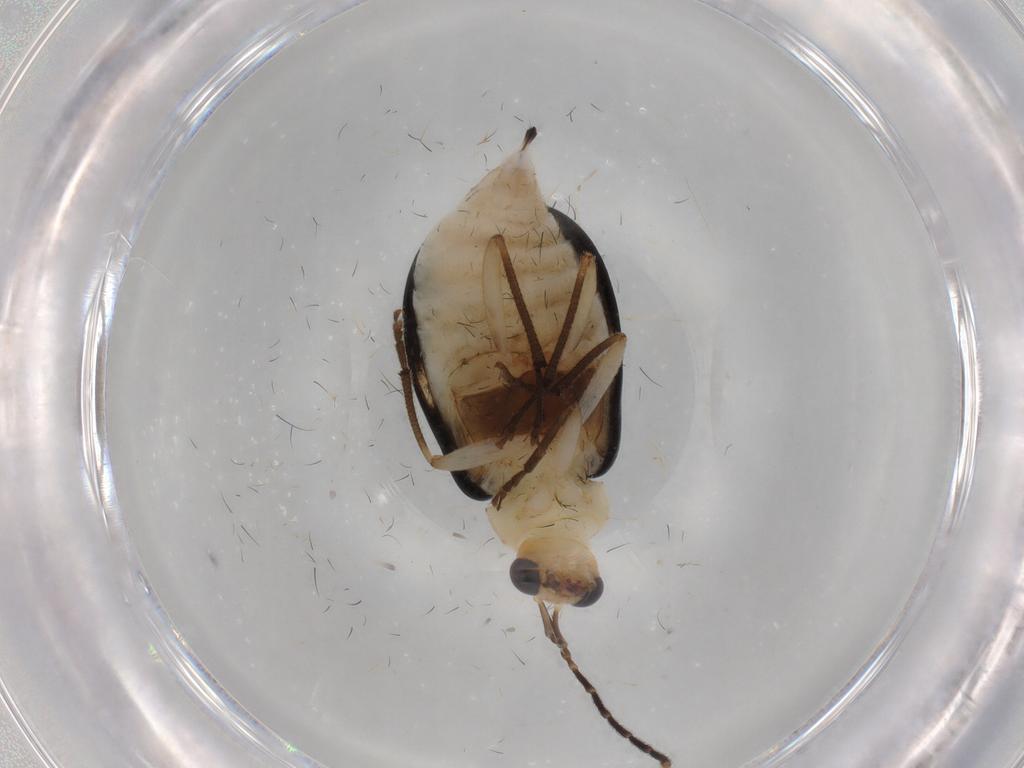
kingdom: Animalia
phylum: Arthropoda
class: Insecta
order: Coleoptera
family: Chrysomelidae
